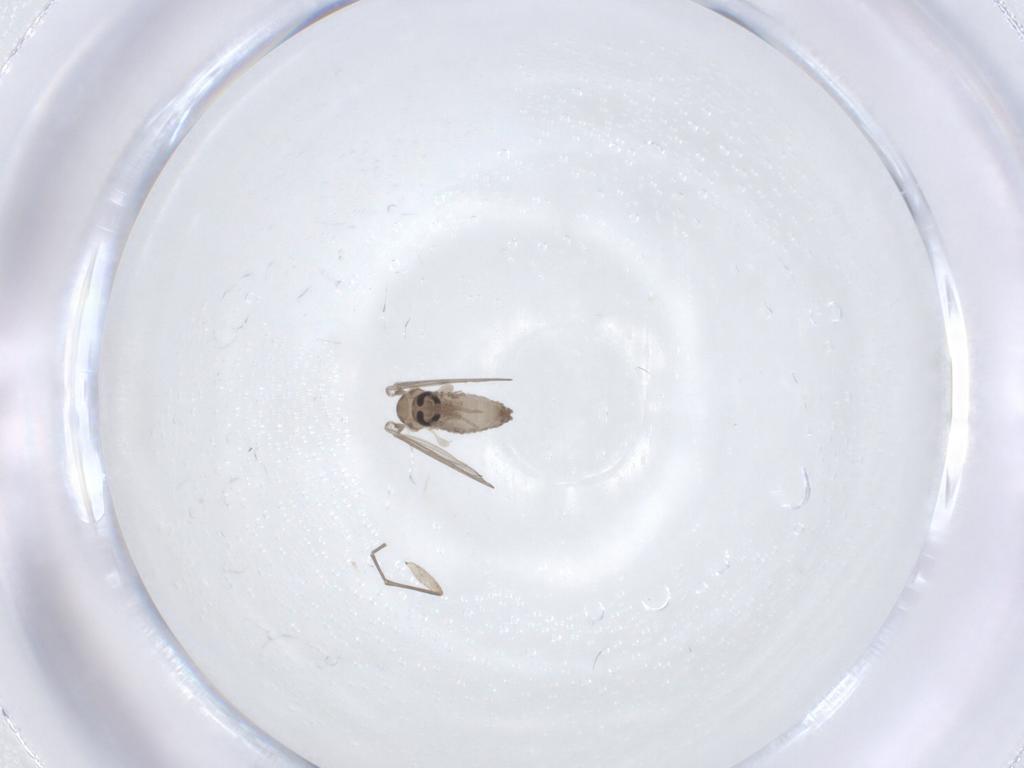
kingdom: Animalia
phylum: Arthropoda
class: Insecta
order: Diptera
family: Psychodidae
